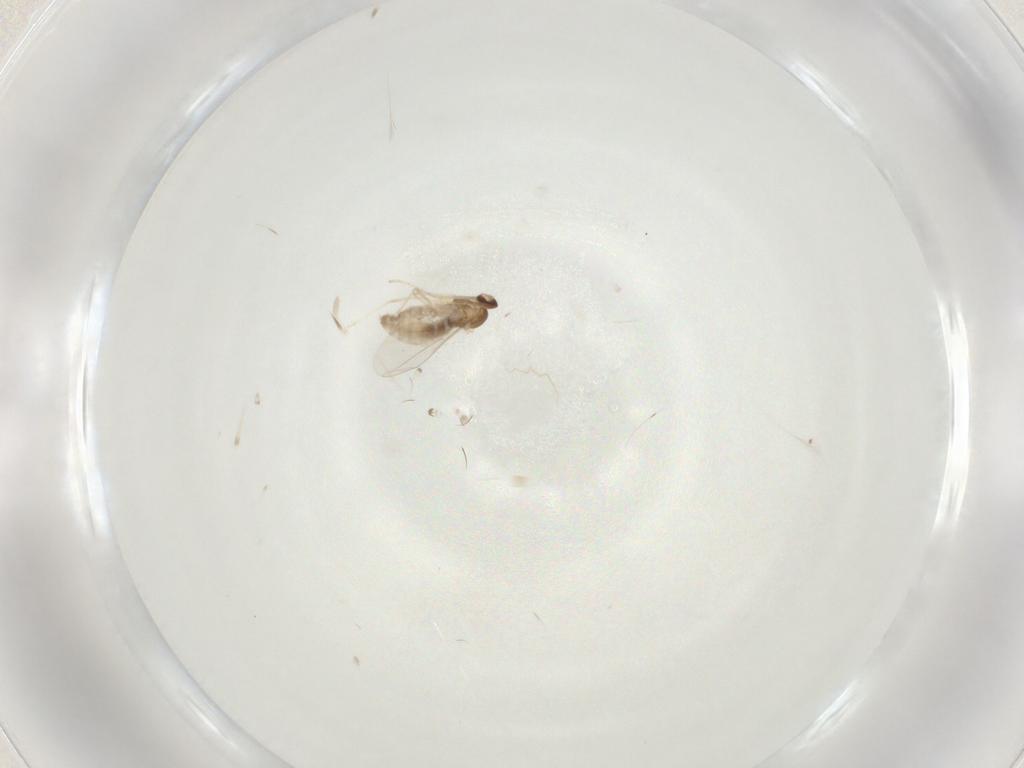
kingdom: Animalia
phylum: Arthropoda
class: Insecta
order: Diptera
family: Cecidomyiidae
